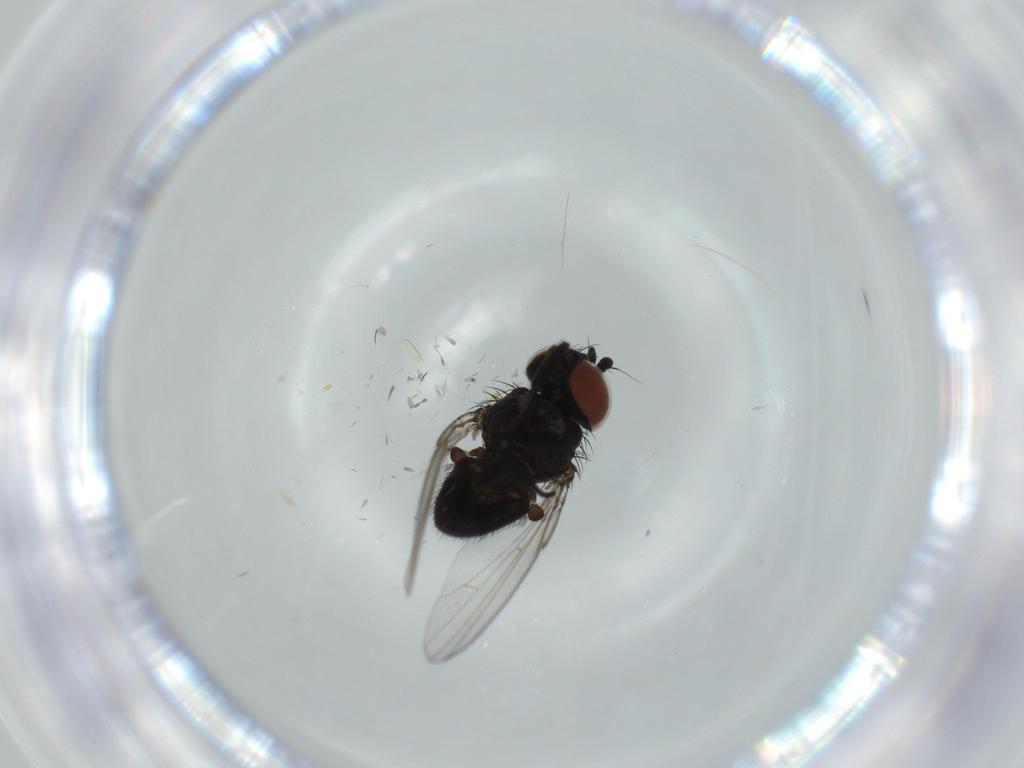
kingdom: Animalia
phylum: Arthropoda
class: Insecta
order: Diptera
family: Milichiidae
